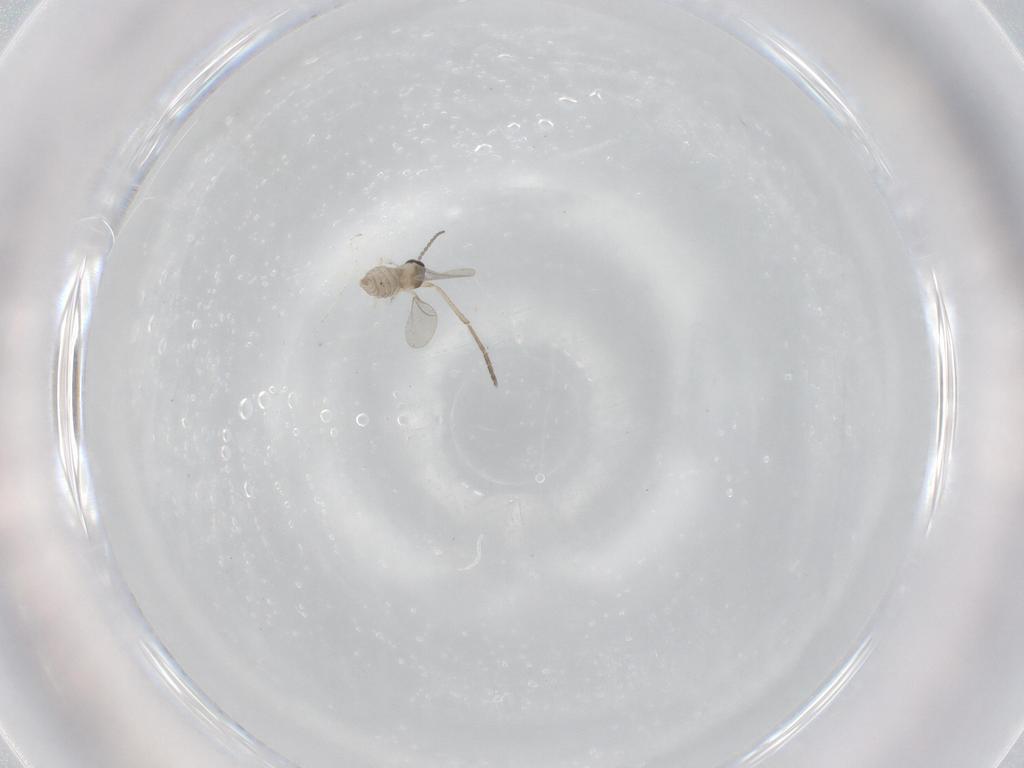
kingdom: Animalia
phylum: Arthropoda
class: Insecta
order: Diptera
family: Cecidomyiidae
